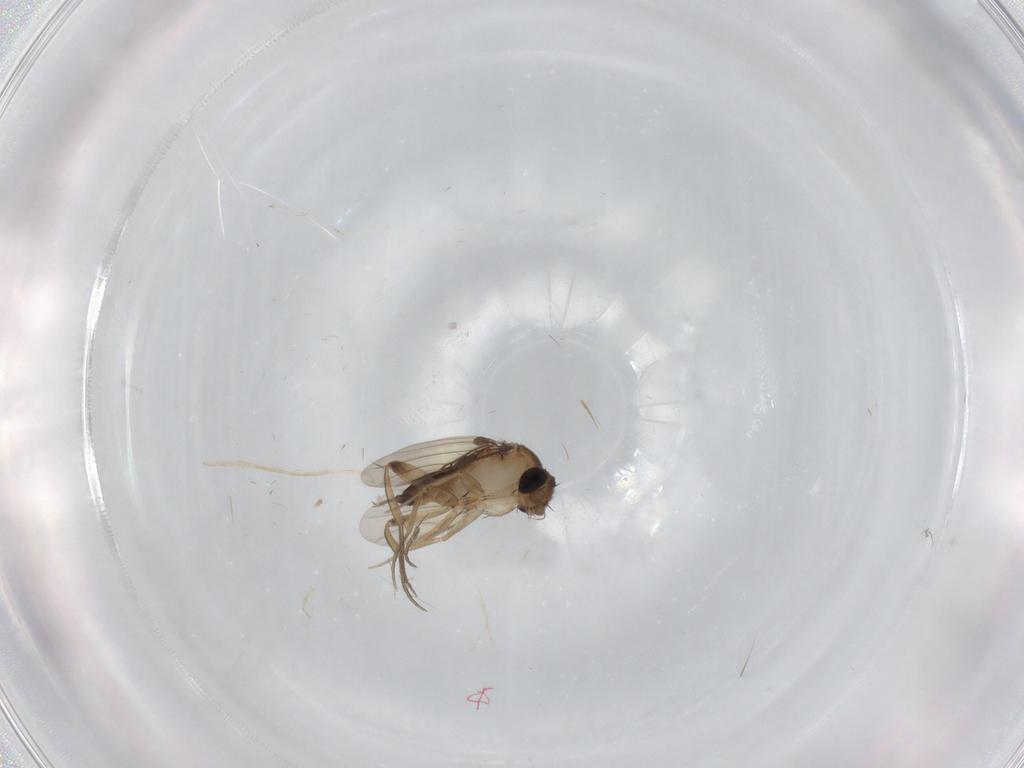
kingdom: Animalia
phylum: Arthropoda
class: Insecta
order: Diptera
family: Phoridae
